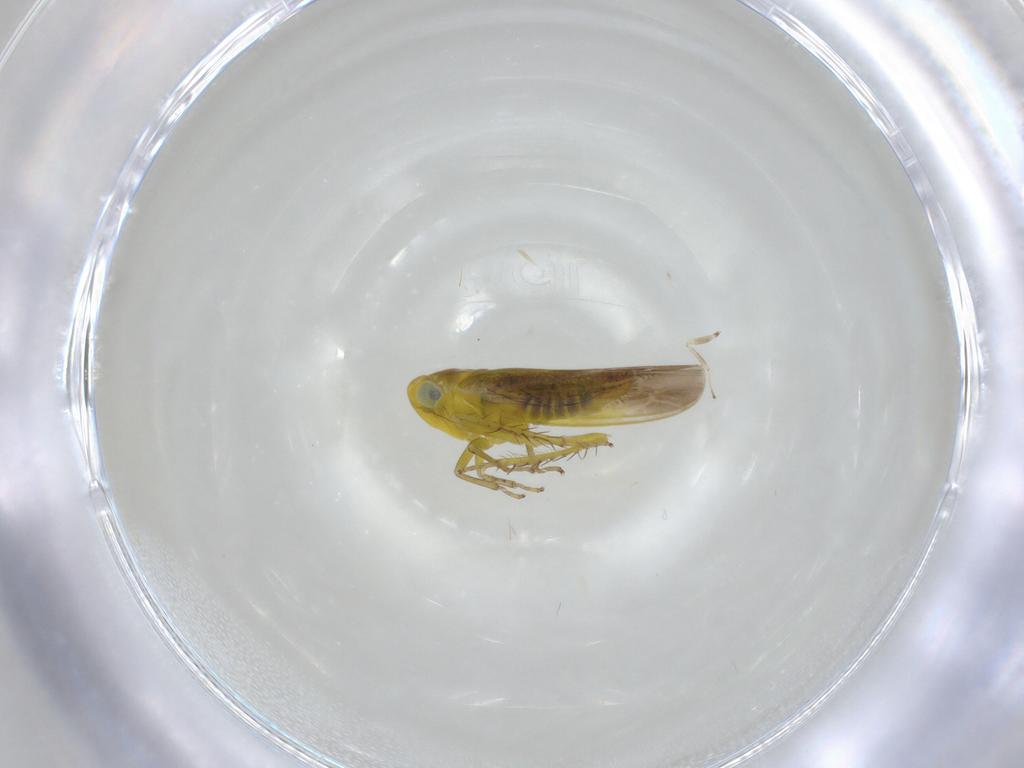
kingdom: Animalia
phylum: Arthropoda
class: Insecta
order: Hemiptera
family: Cicadellidae
